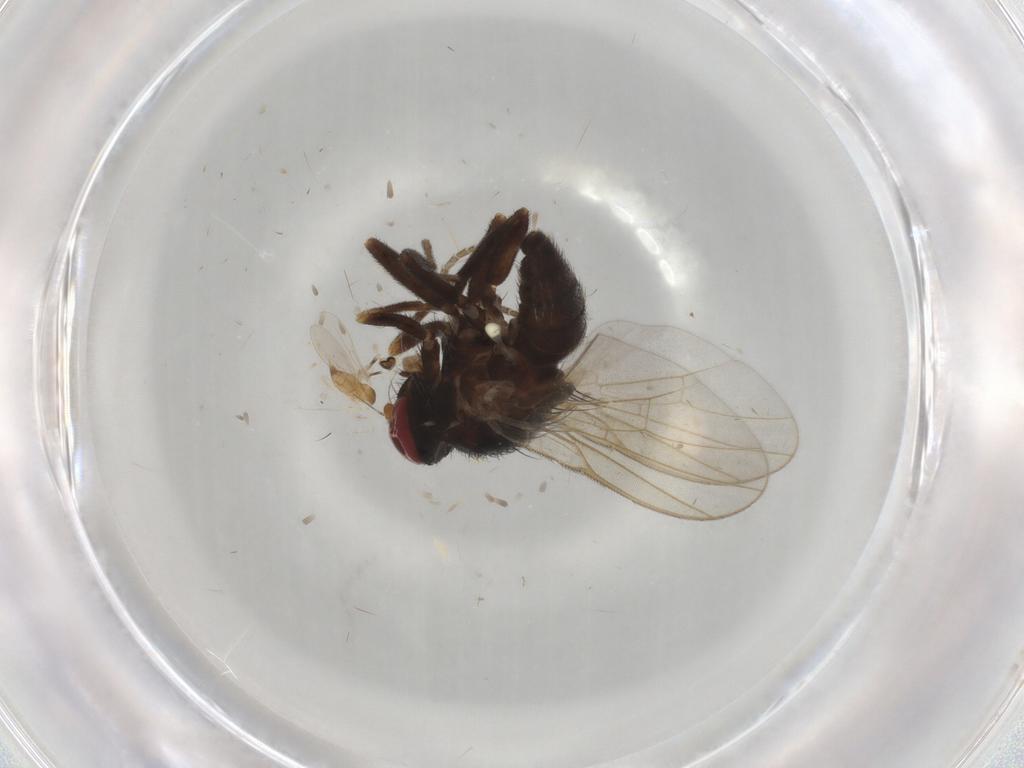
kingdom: Animalia
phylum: Arthropoda
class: Insecta
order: Diptera
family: Cecidomyiidae
